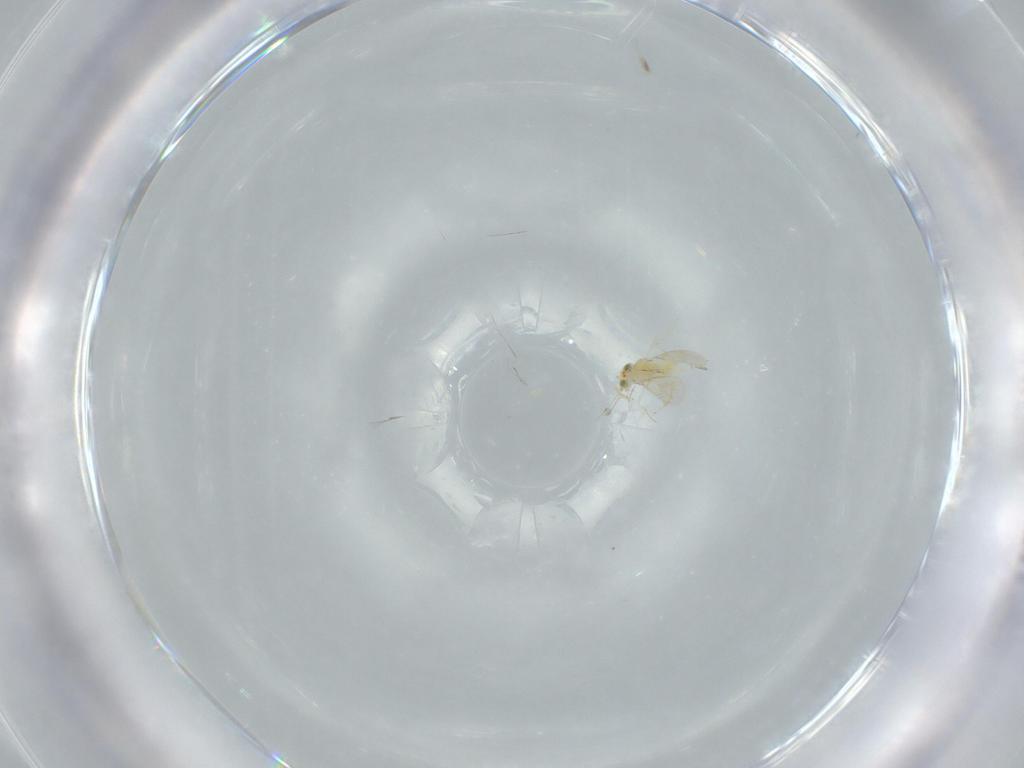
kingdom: Animalia
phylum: Arthropoda
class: Insecta
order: Hymenoptera
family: Aphelinidae
